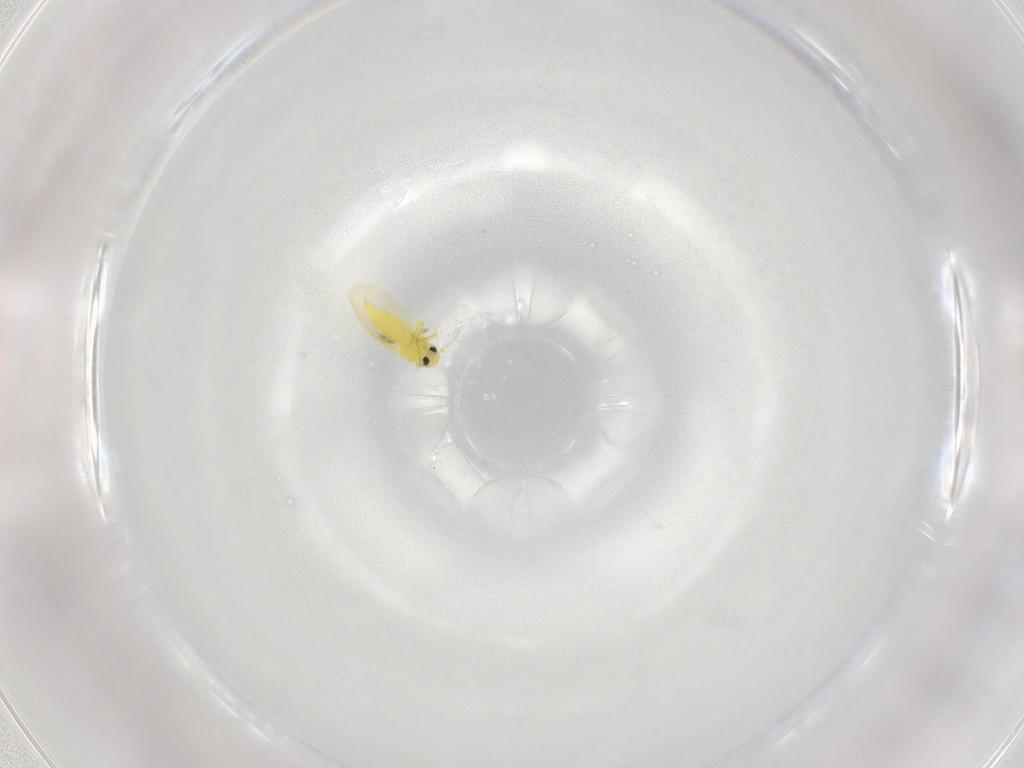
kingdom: Animalia
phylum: Arthropoda
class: Insecta
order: Hemiptera
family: Aleyrodidae
